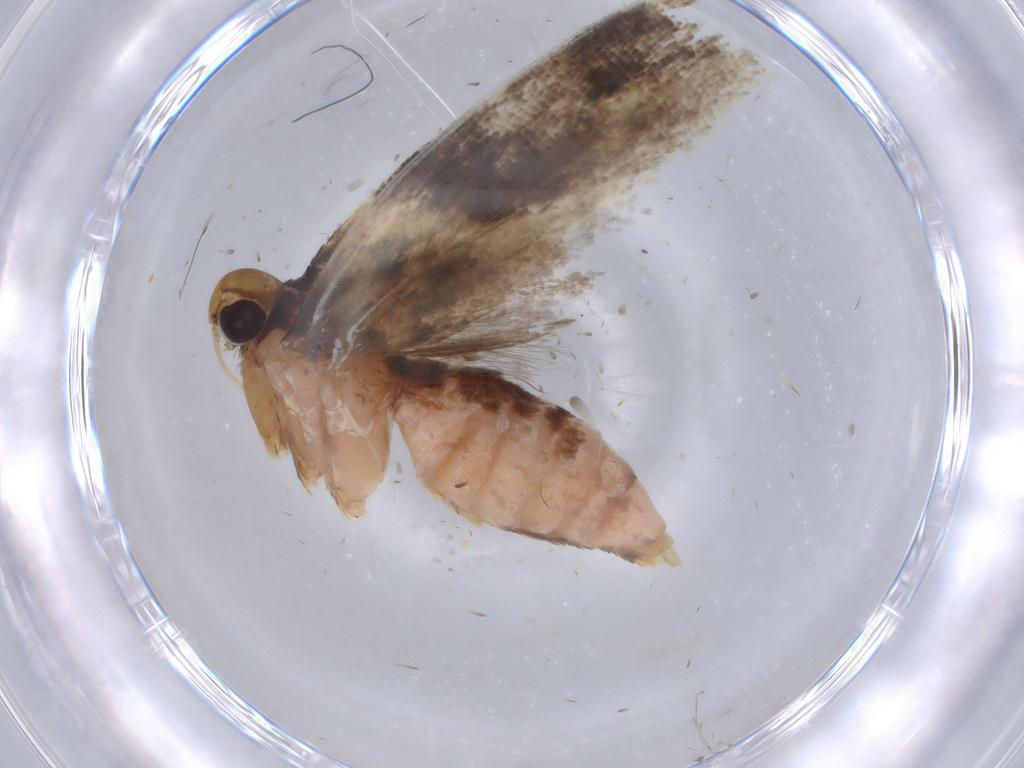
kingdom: Animalia
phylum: Arthropoda
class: Insecta
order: Lepidoptera
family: Gelechiidae
